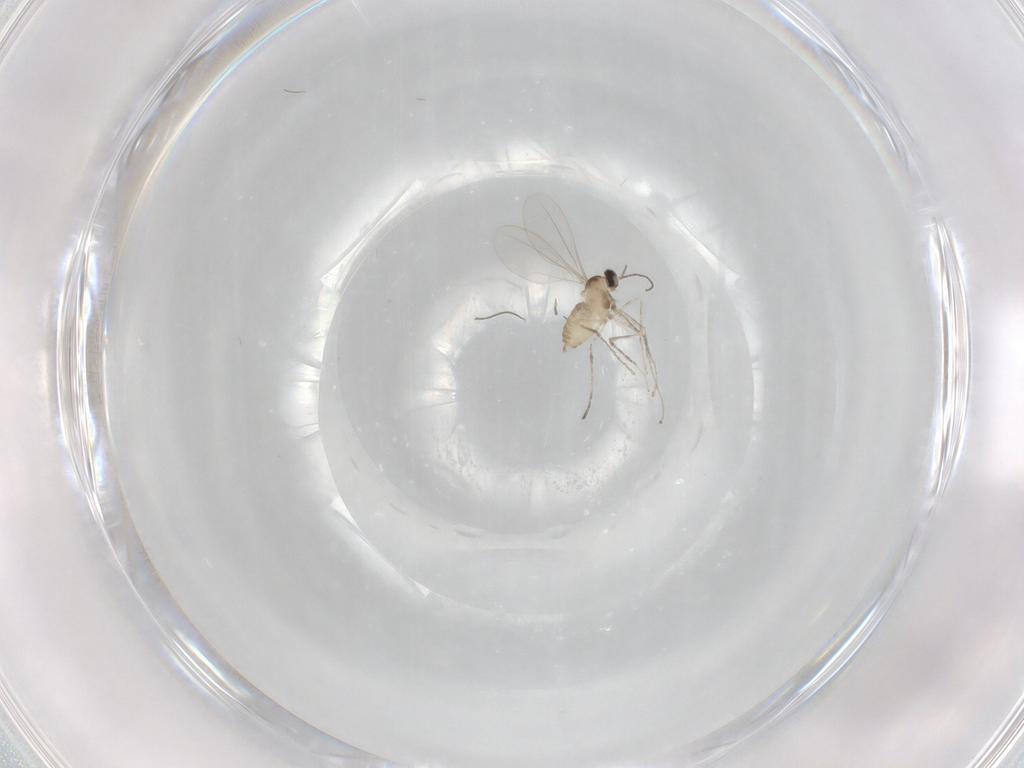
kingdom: Animalia
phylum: Arthropoda
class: Insecta
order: Diptera
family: Cecidomyiidae
